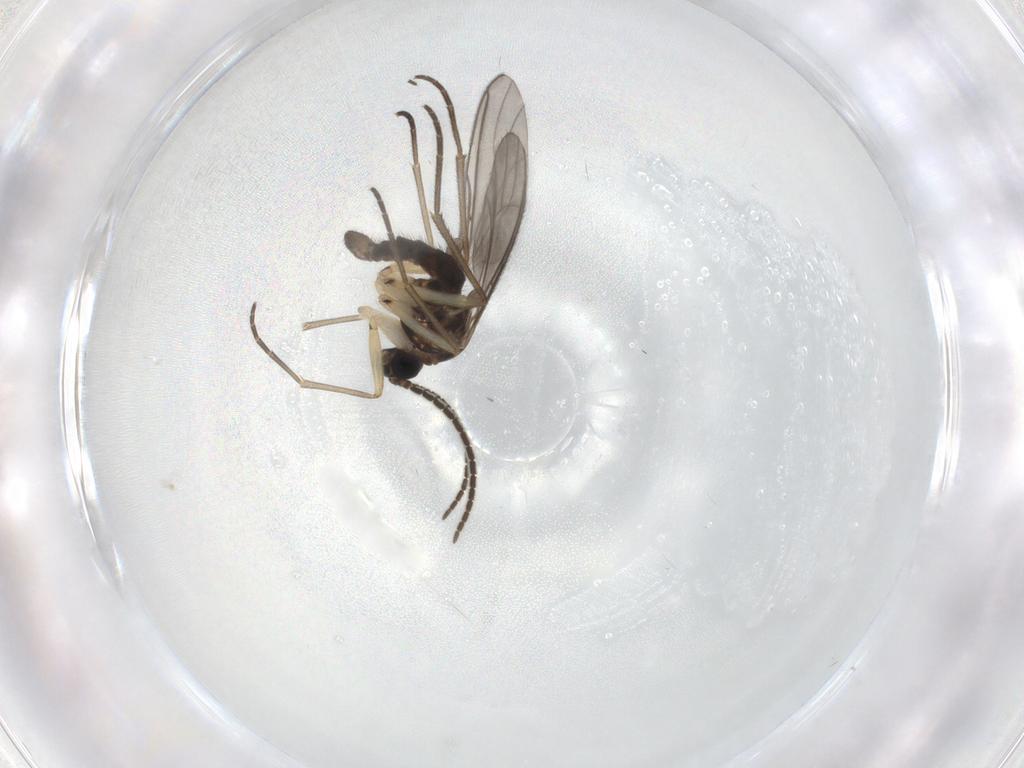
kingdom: Animalia
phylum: Arthropoda
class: Insecta
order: Diptera
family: Sciaridae
